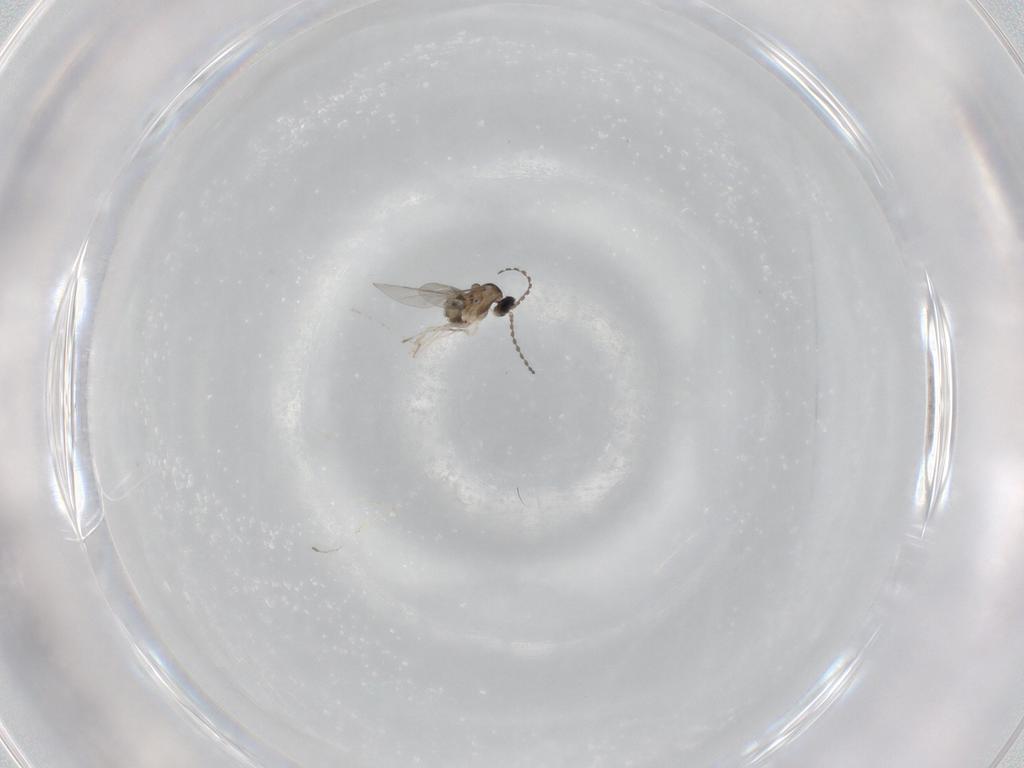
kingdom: Animalia
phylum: Arthropoda
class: Insecta
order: Diptera
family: Cecidomyiidae
